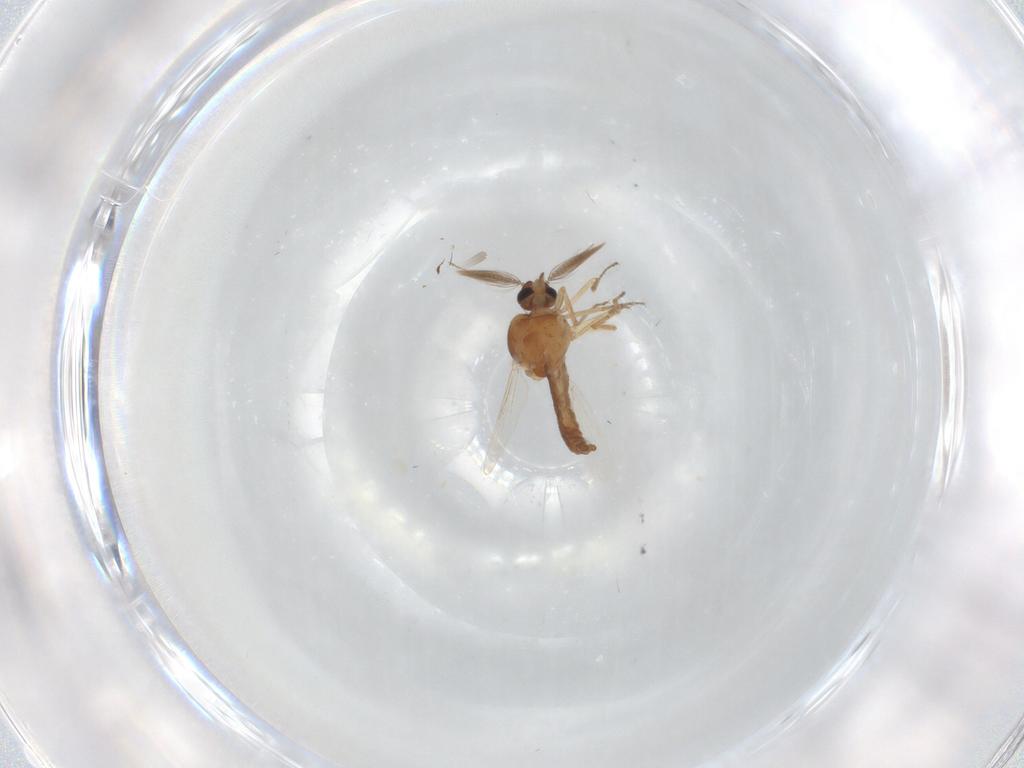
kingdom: Animalia
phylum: Arthropoda
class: Insecta
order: Diptera
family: Ceratopogonidae
